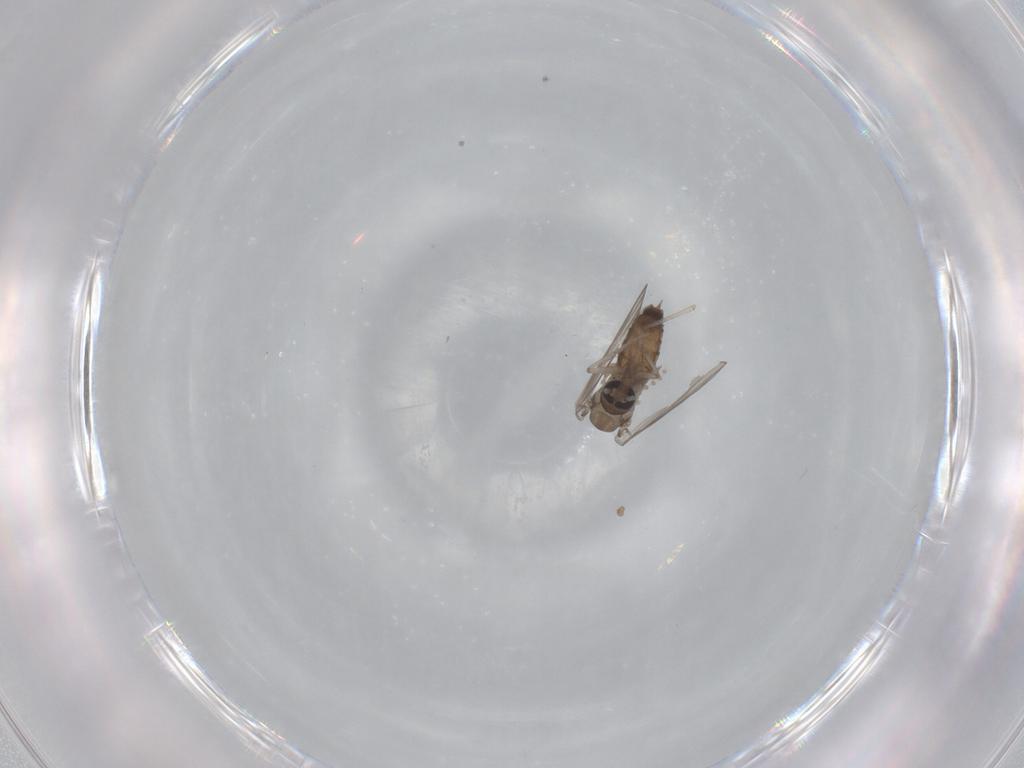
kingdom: Animalia
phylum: Arthropoda
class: Insecta
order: Diptera
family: Psychodidae
